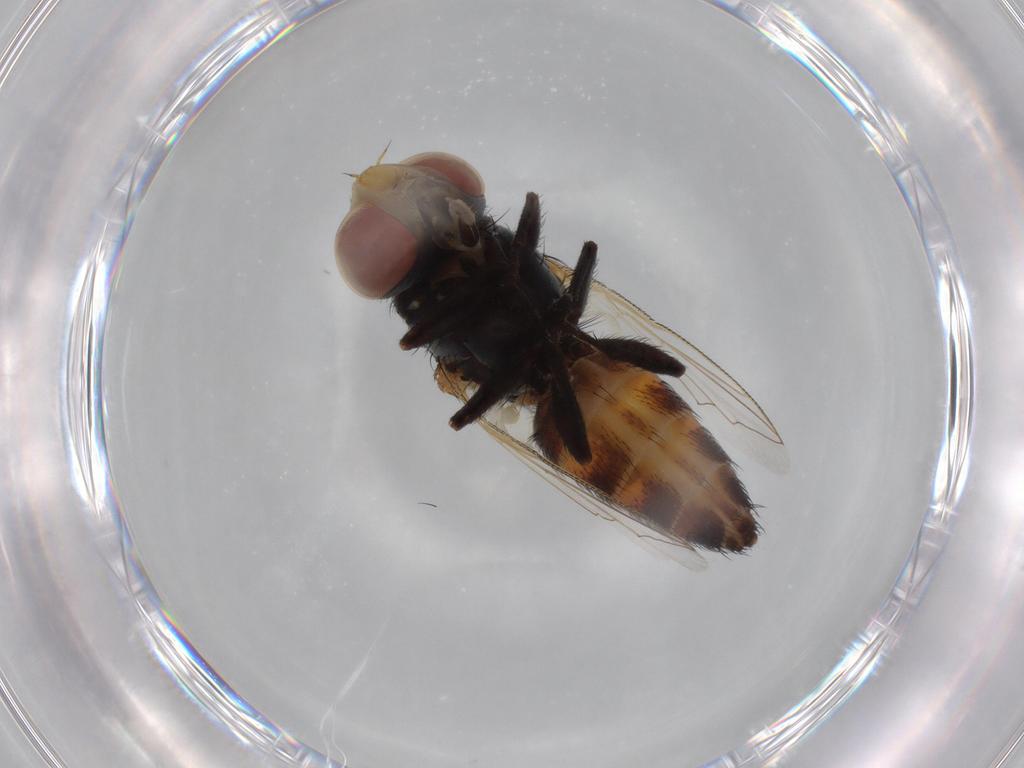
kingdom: Animalia
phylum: Arthropoda
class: Insecta
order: Diptera
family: Sarcophagidae
